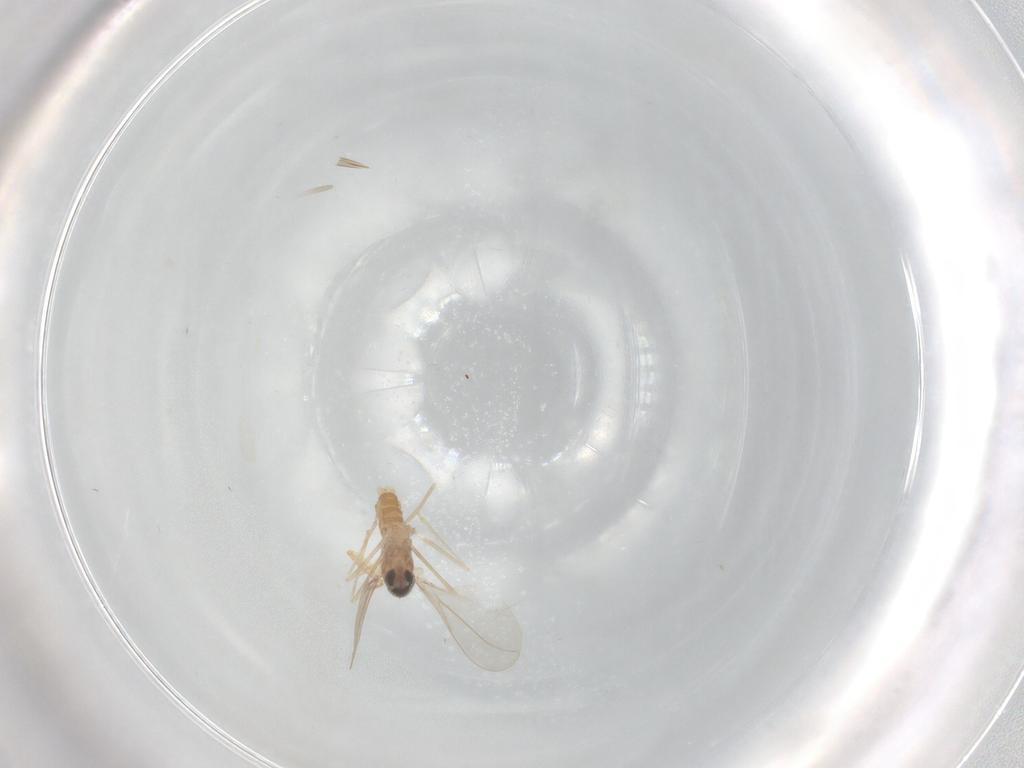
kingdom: Animalia
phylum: Arthropoda
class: Insecta
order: Diptera
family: Cecidomyiidae
